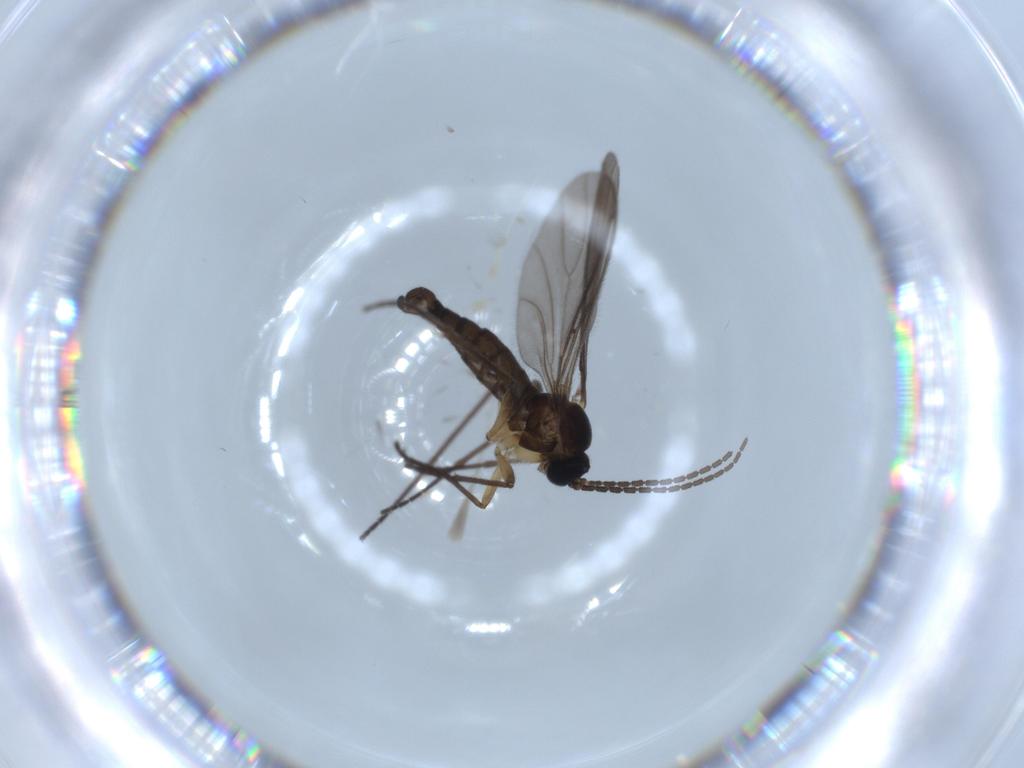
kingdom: Animalia
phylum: Arthropoda
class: Insecta
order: Diptera
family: Sciaridae
